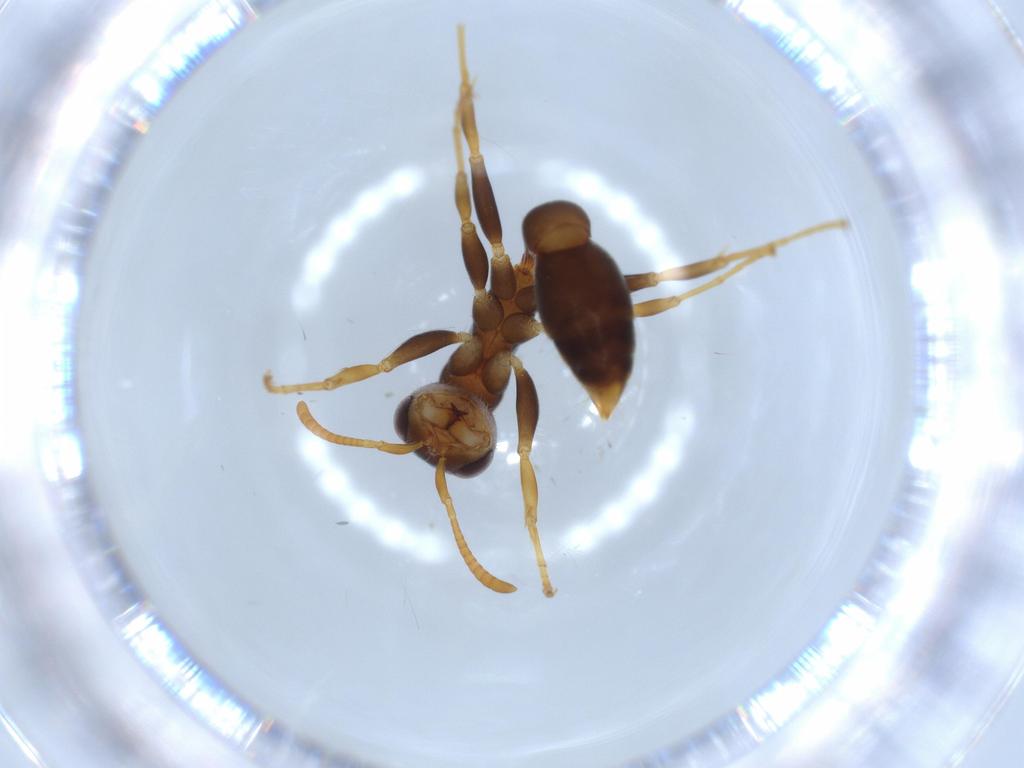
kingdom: Animalia
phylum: Arthropoda
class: Insecta
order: Hymenoptera
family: Formicidae
